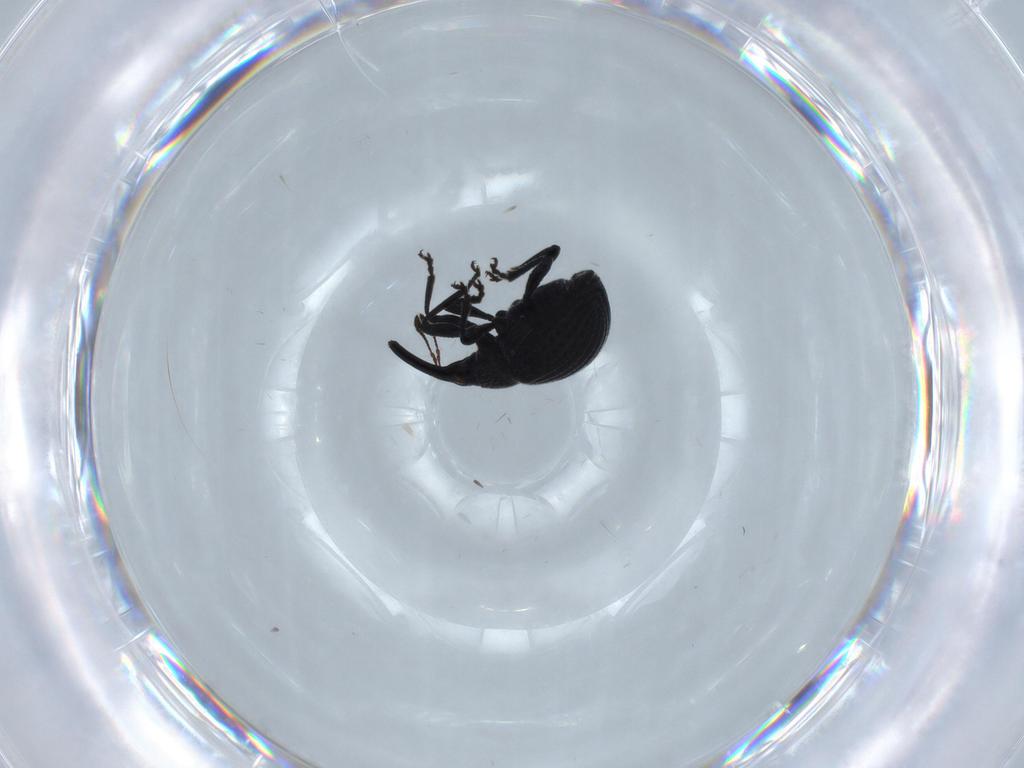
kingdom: Animalia
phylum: Arthropoda
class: Insecta
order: Coleoptera
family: Brentidae
